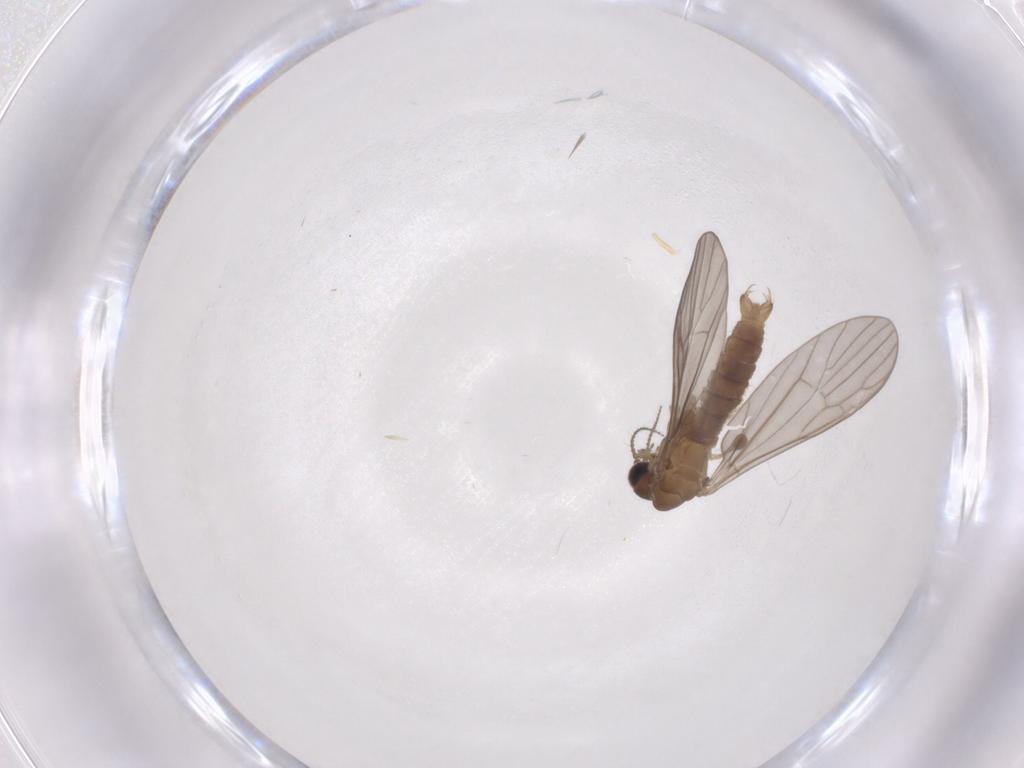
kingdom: Animalia
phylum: Arthropoda
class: Insecta
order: Diptera
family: Limoniidae
